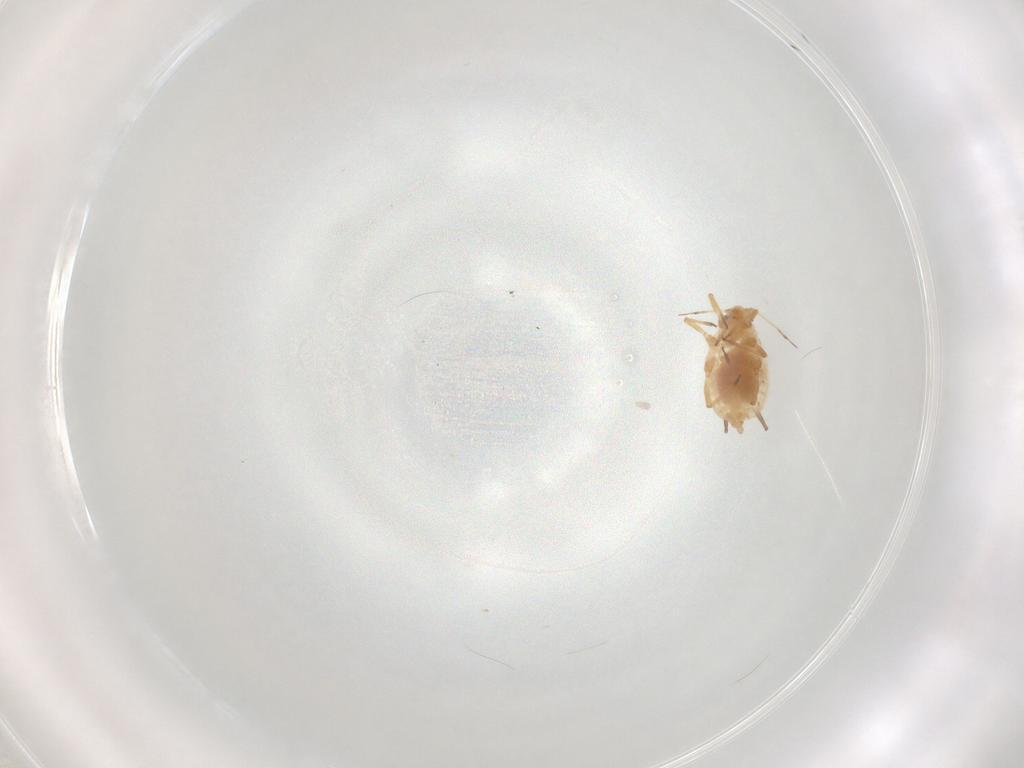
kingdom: Animalia
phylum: Arthropoda
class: Insecta
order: Hemiptera
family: Aphididae
